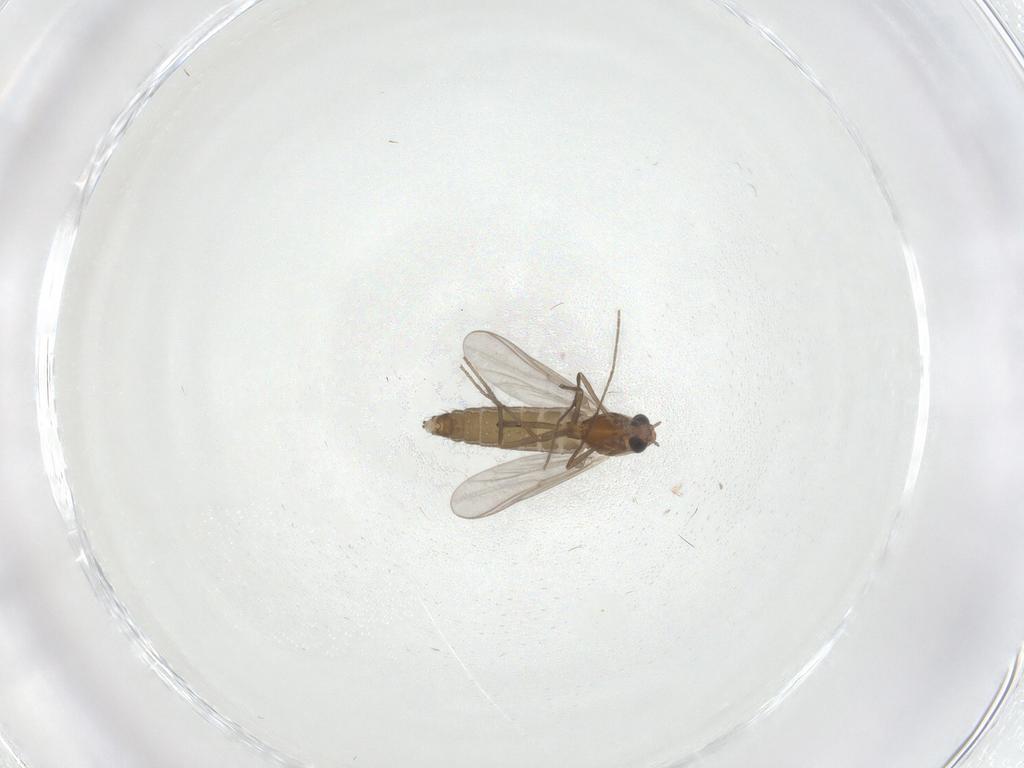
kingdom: Animalia
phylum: Arthropoda
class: Insecta
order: Diptera
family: Chironomidae
